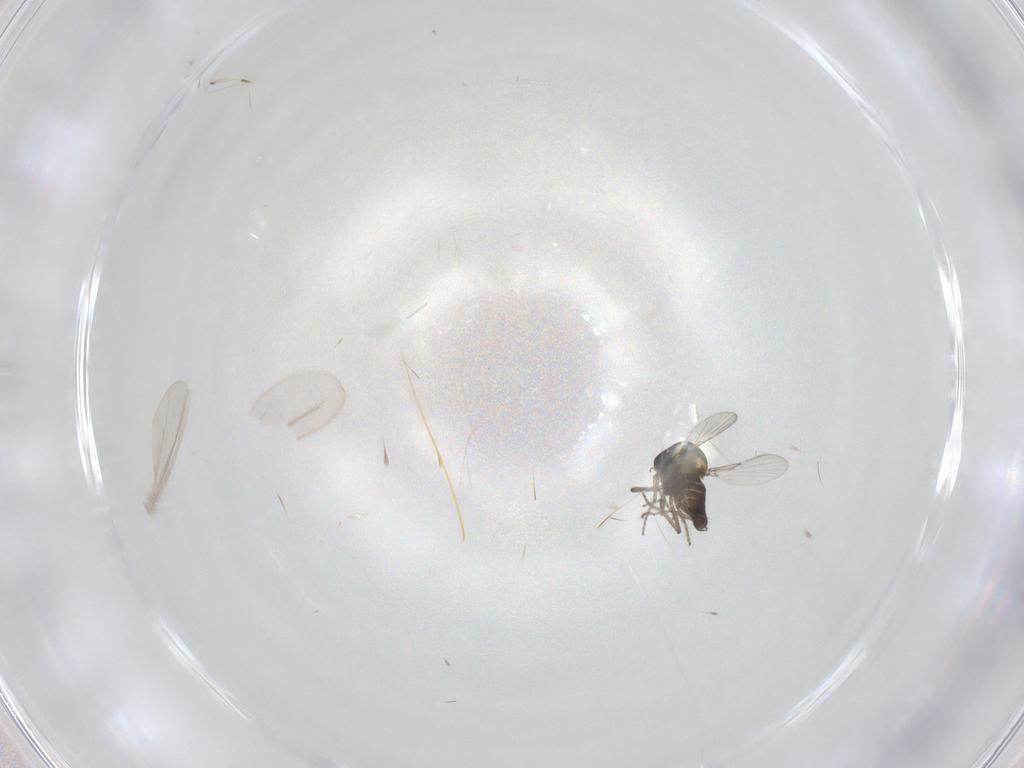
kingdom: Animalia
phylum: Arthropoda
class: Insecta
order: Diptera
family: Ceratopogonidae
